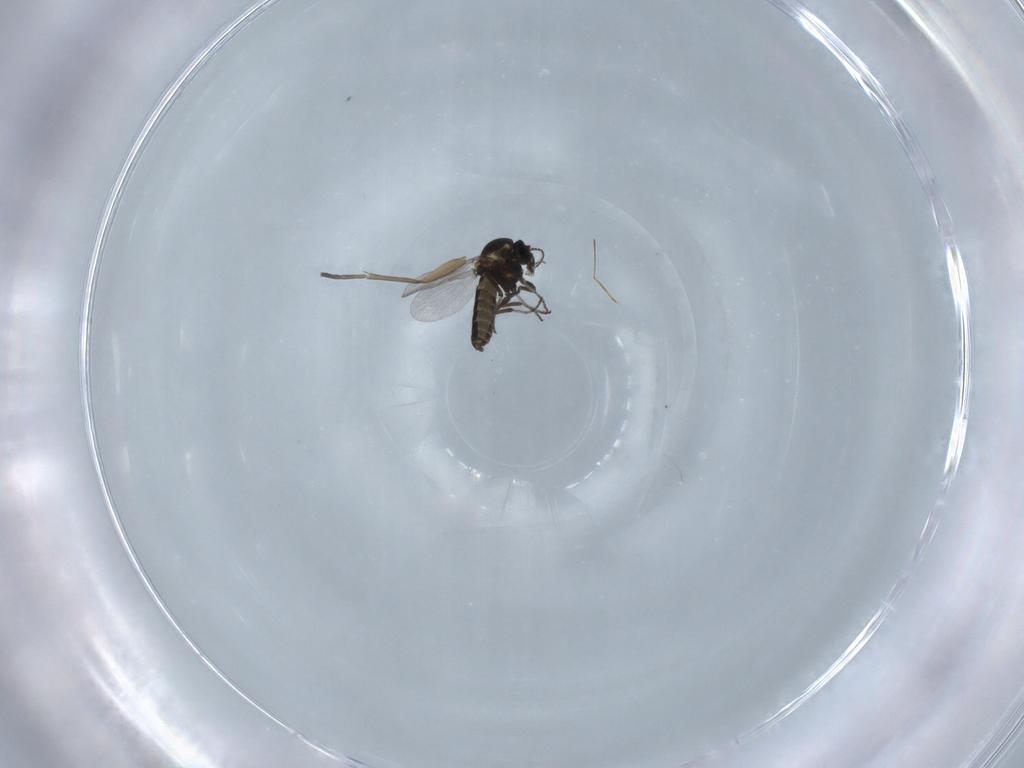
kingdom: Animalia
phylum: Arthropoda
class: Insecta
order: Diptera
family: Ceratopogonidae
